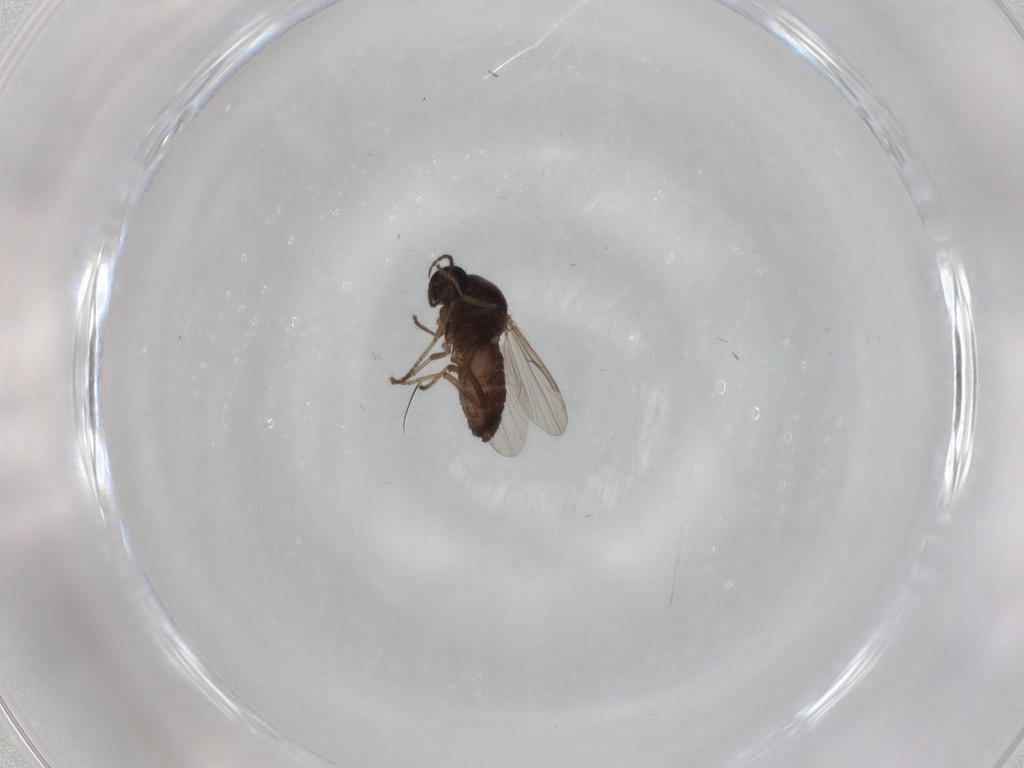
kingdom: Animalia
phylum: Arthropoda
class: Insecta
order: Diptera
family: Ceratopogonidae
